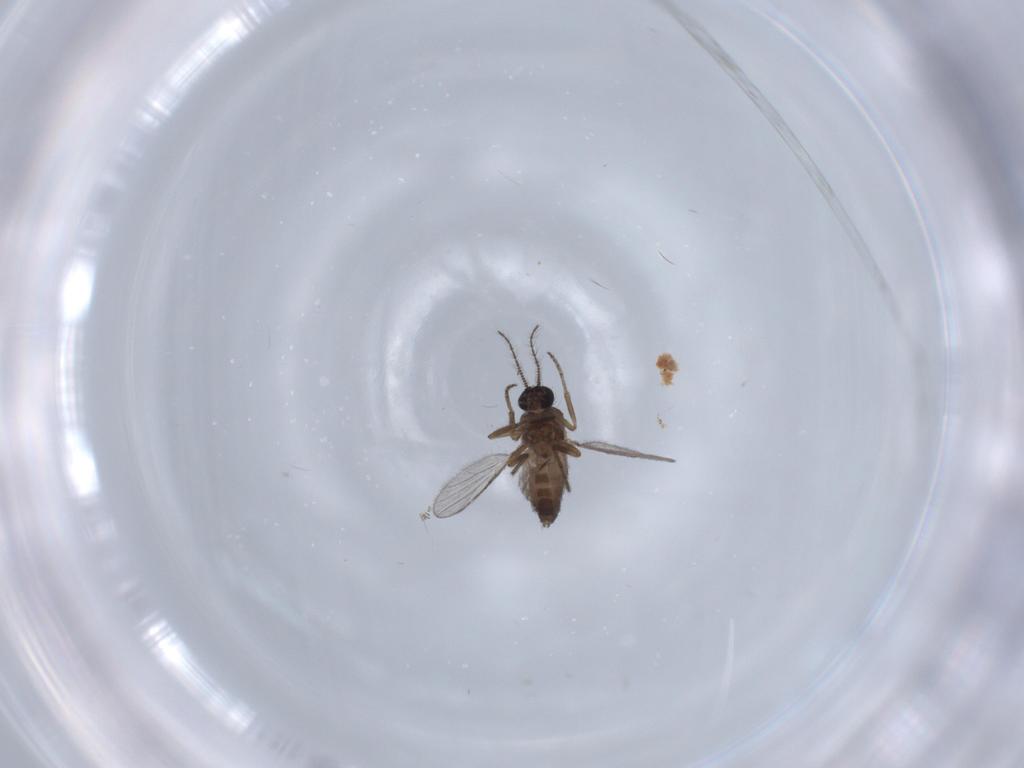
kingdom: Animalia
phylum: Arthropoda
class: Insecta
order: Diptera
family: Ceratopogonidae
